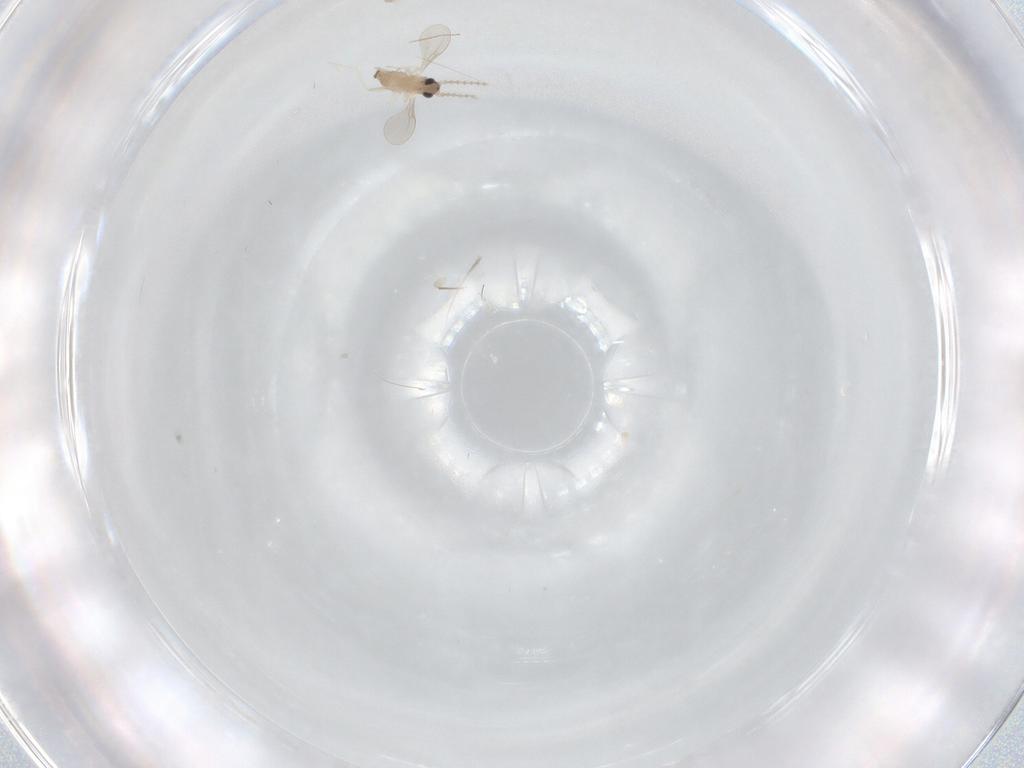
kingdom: Animalia
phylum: Arthropoda
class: Insecta
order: Diptera
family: Cecidomyiidae
